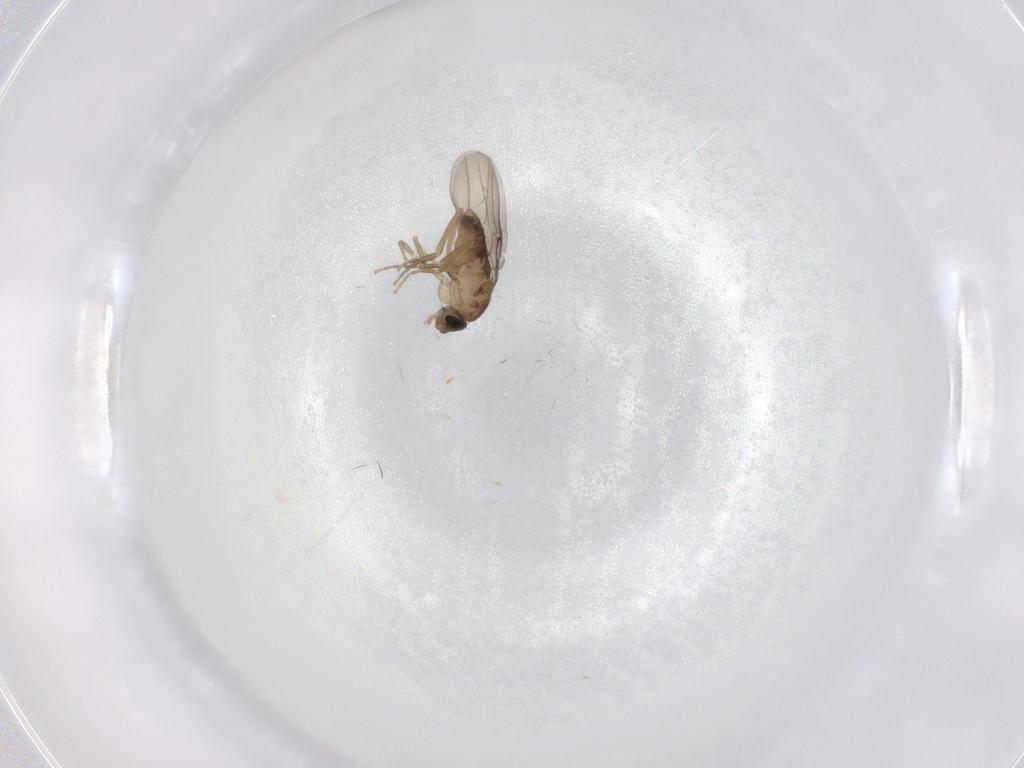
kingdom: Animalia
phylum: Arthropoda
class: Insecta
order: Diptera
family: Phoridae
